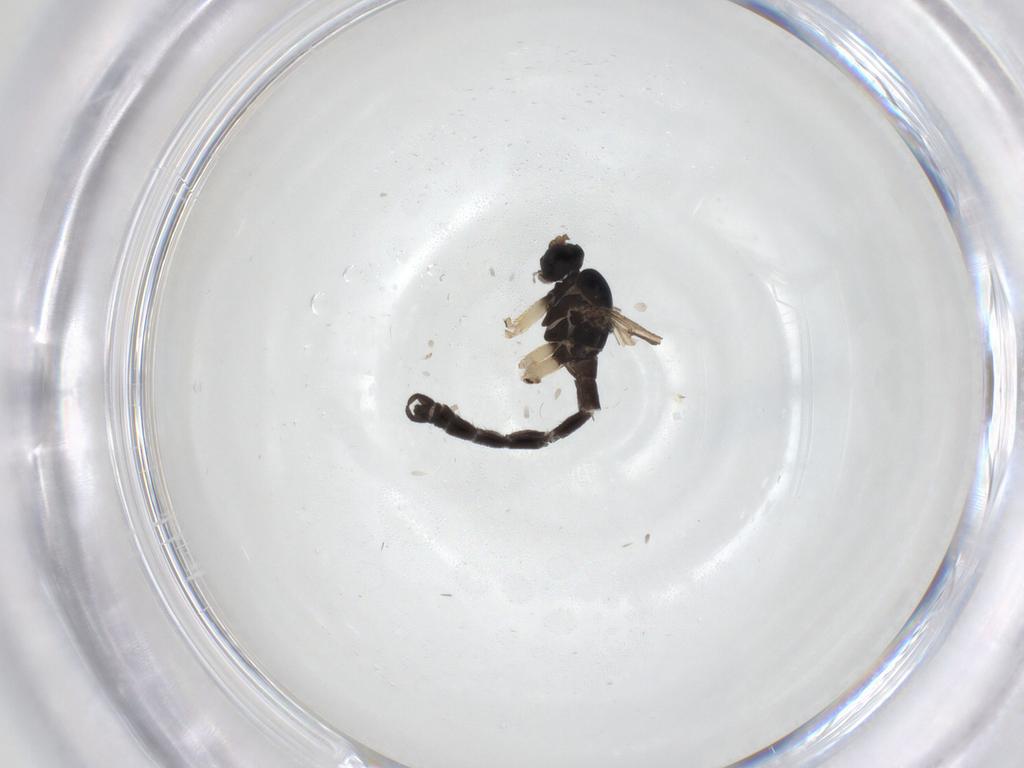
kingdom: Animalia
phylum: Arthropoda
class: Insecta
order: Diptera
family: Sciaridae
